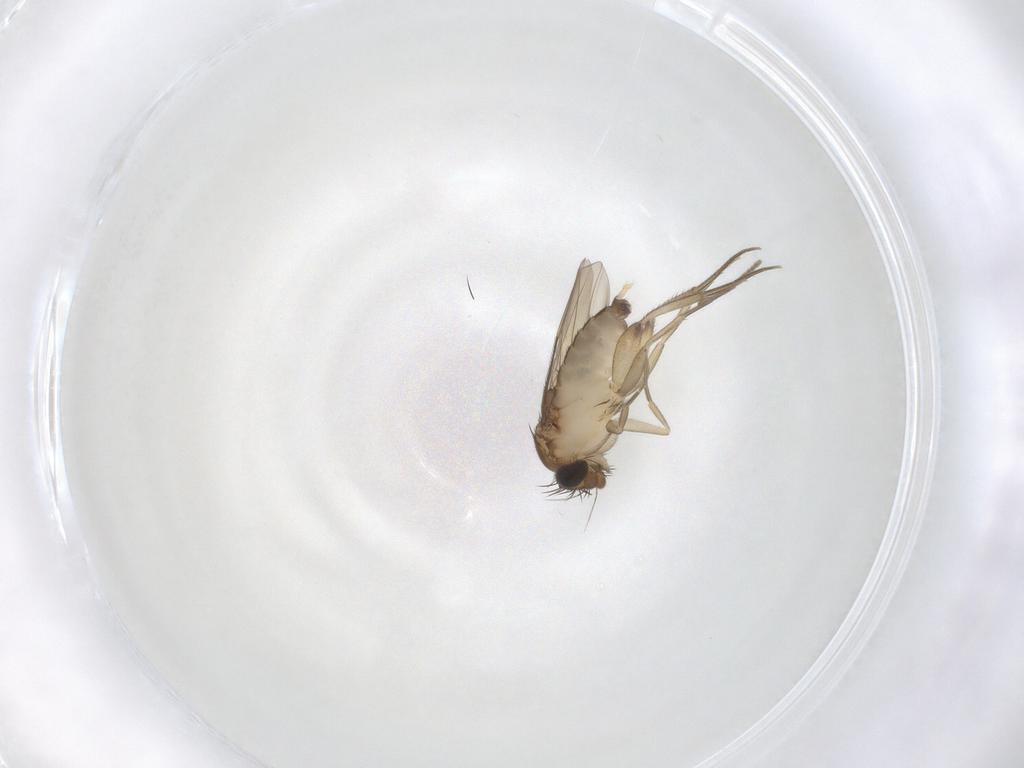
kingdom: Animalia
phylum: Arthropoda
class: Insecta
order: Diptera
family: Phoridae
